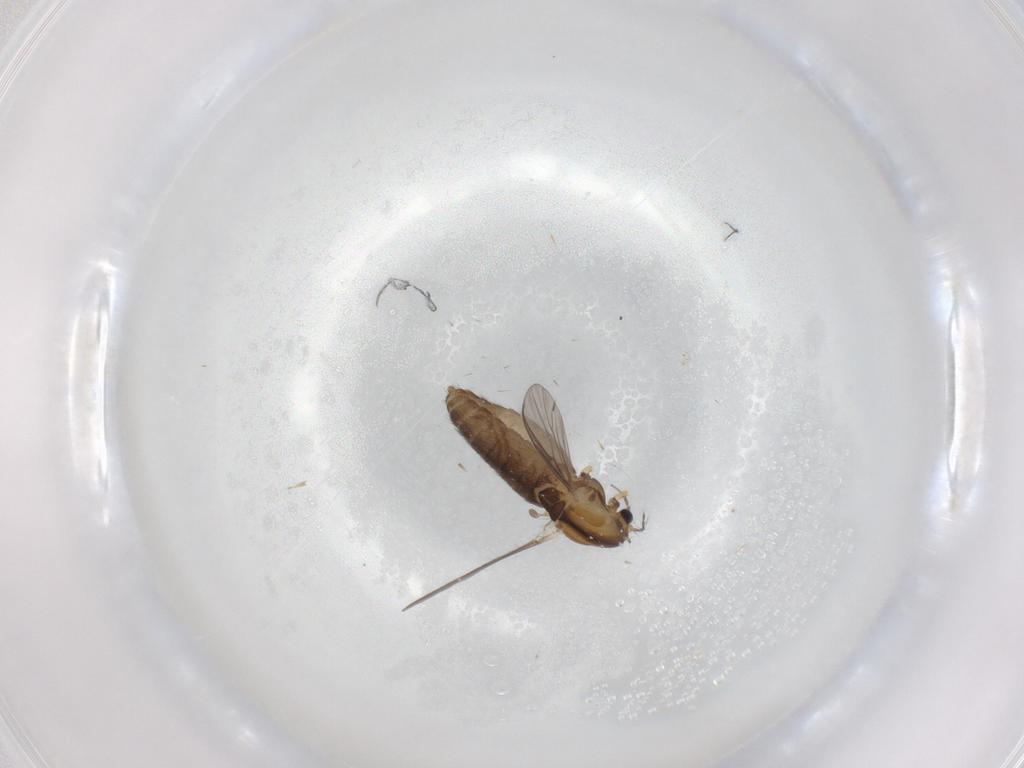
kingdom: Animalia
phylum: Arthropoda
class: Insecta
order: Diptera
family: Chironomidae
